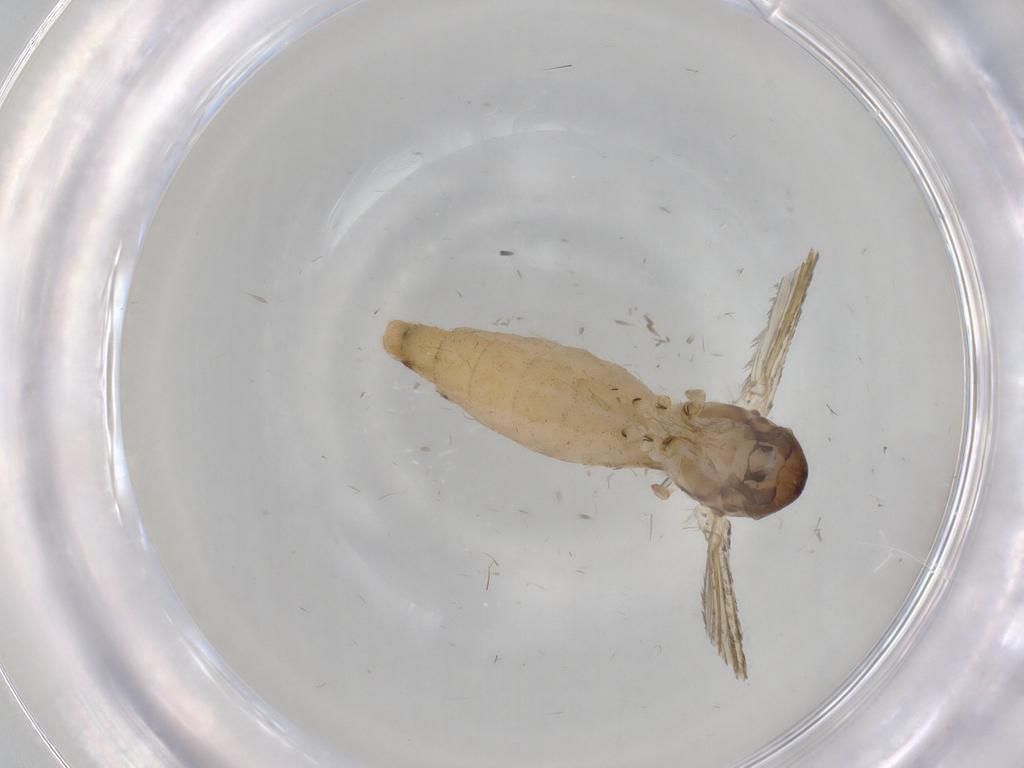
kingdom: Animalia
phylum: Arthropoda
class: Insecta
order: Diptera
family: Culicidae
